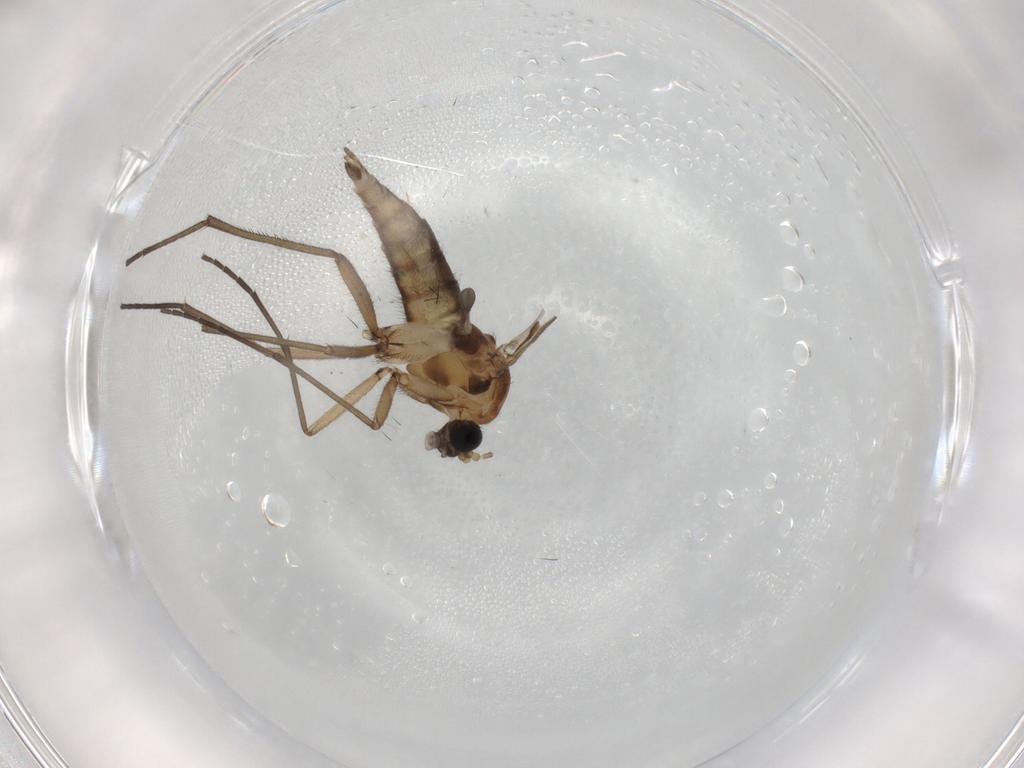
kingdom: Animalia
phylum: Arthropoda
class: Insecta
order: Diptera
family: Sciaridae
